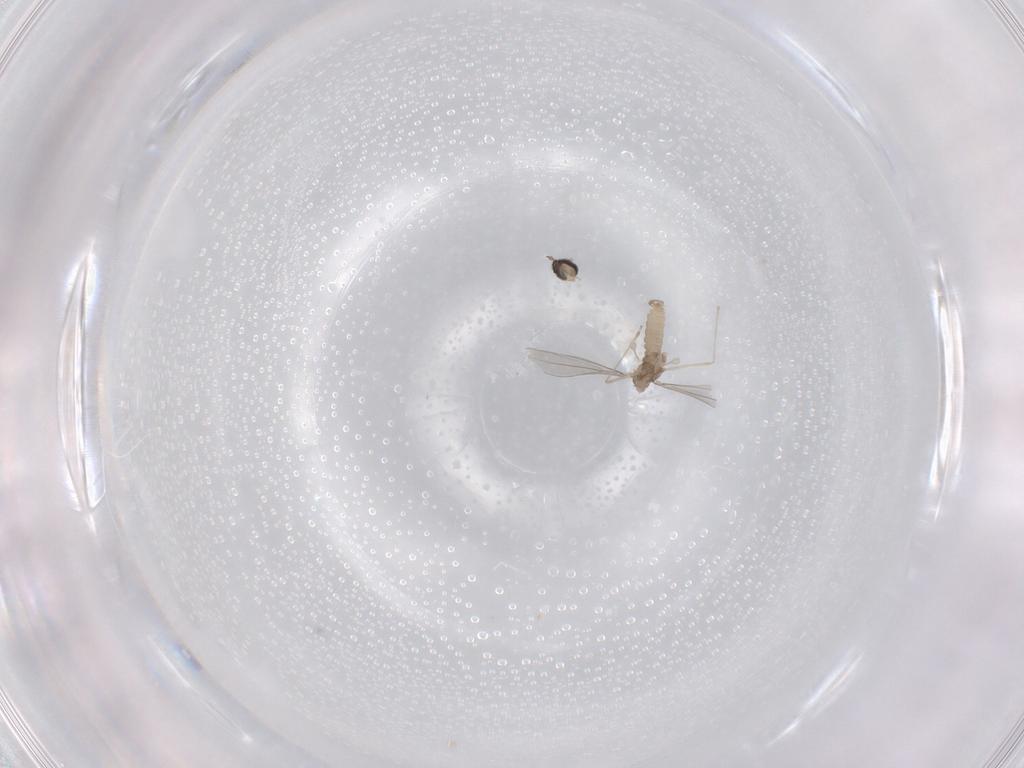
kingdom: Animalia
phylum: Arthropoda
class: Insecta
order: Diptera
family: Cecidomyiidae
